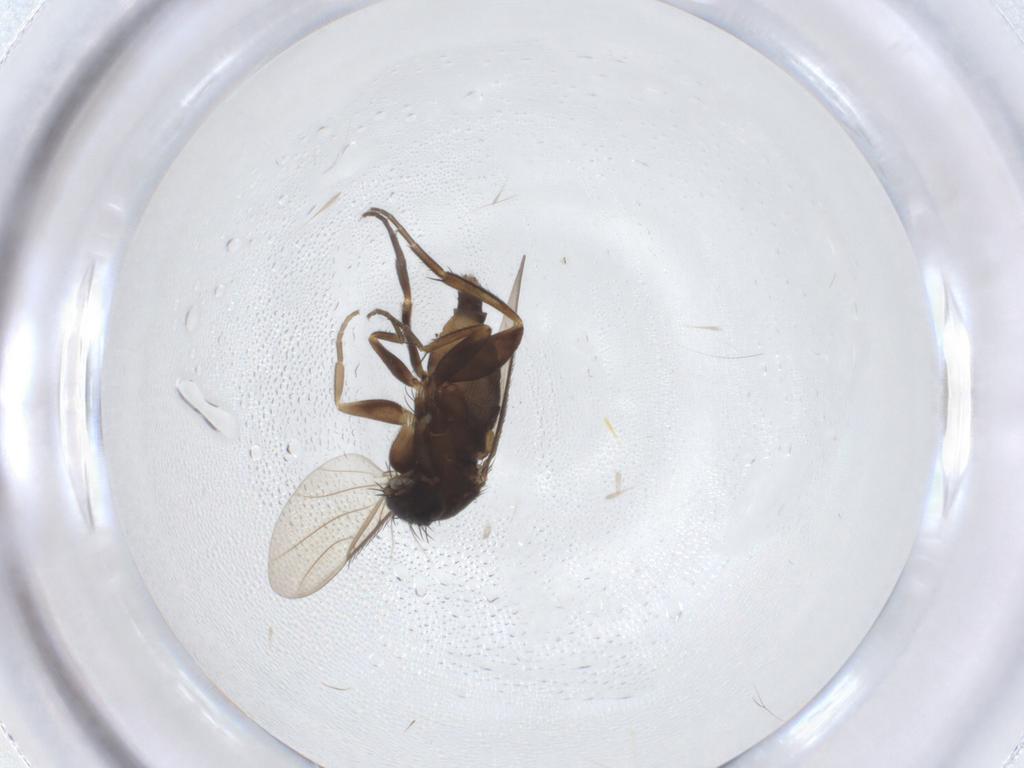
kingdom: Animalia
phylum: Arthropoda
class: Insecta
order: Diptera
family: Phoridae
